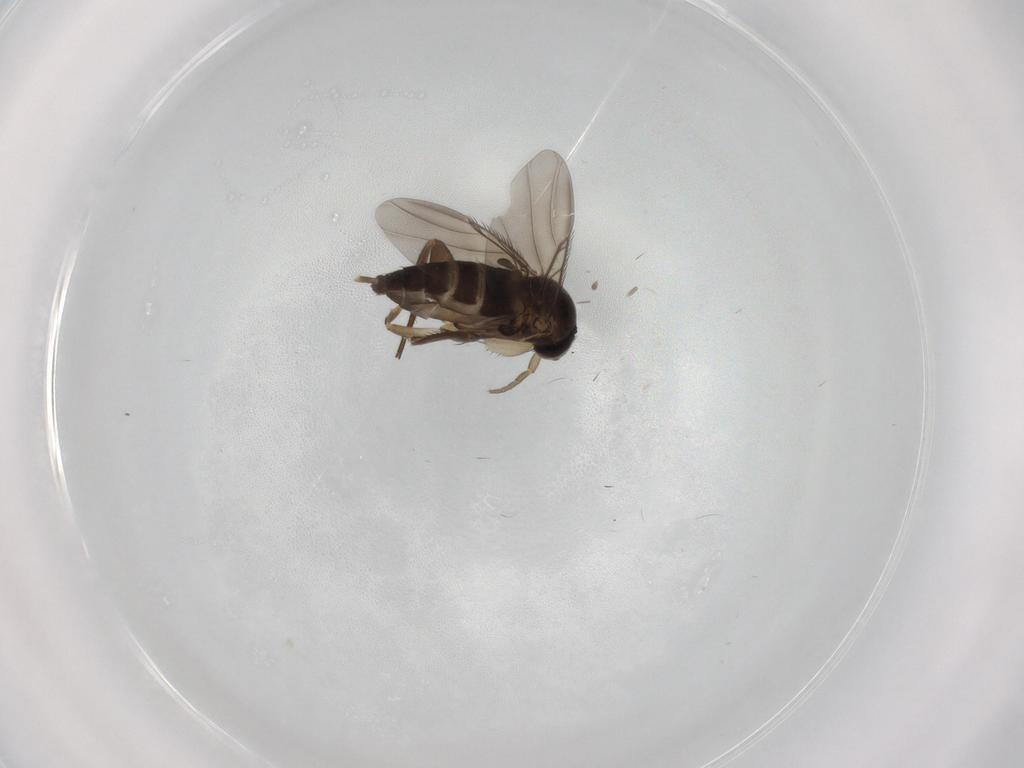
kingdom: Animalia
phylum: Arthropoda
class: Insecta
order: Diptera
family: Phoridae
